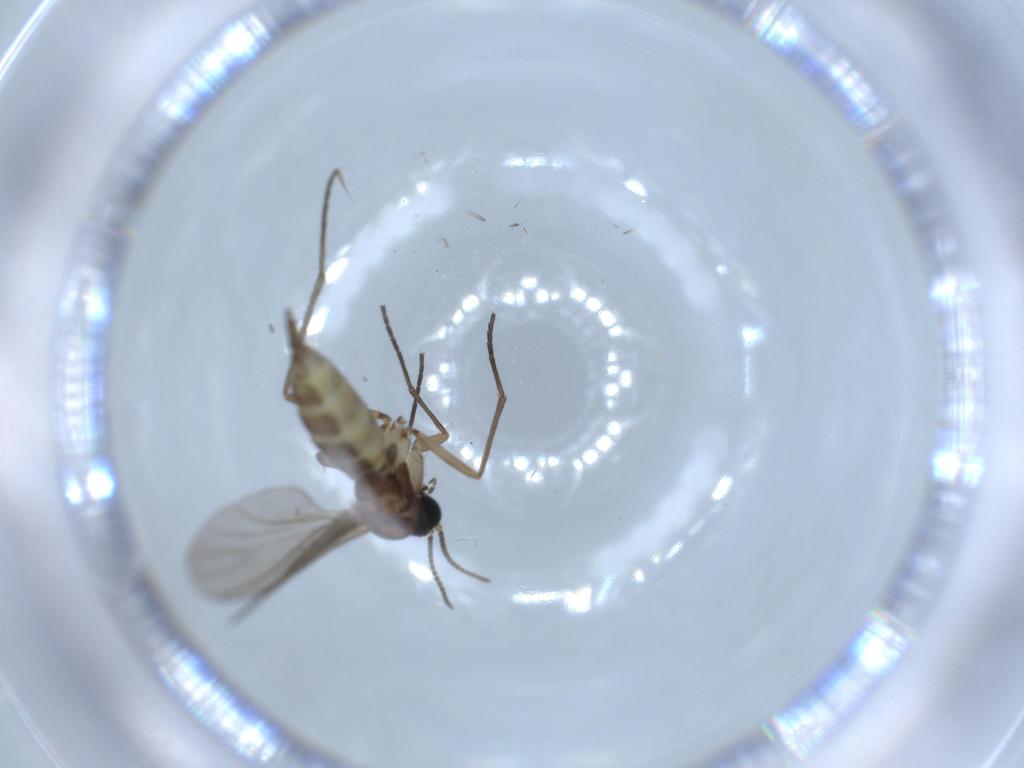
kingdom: Animalia
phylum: Arthropoda
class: Insecta
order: Diptera
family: Sciaridae
